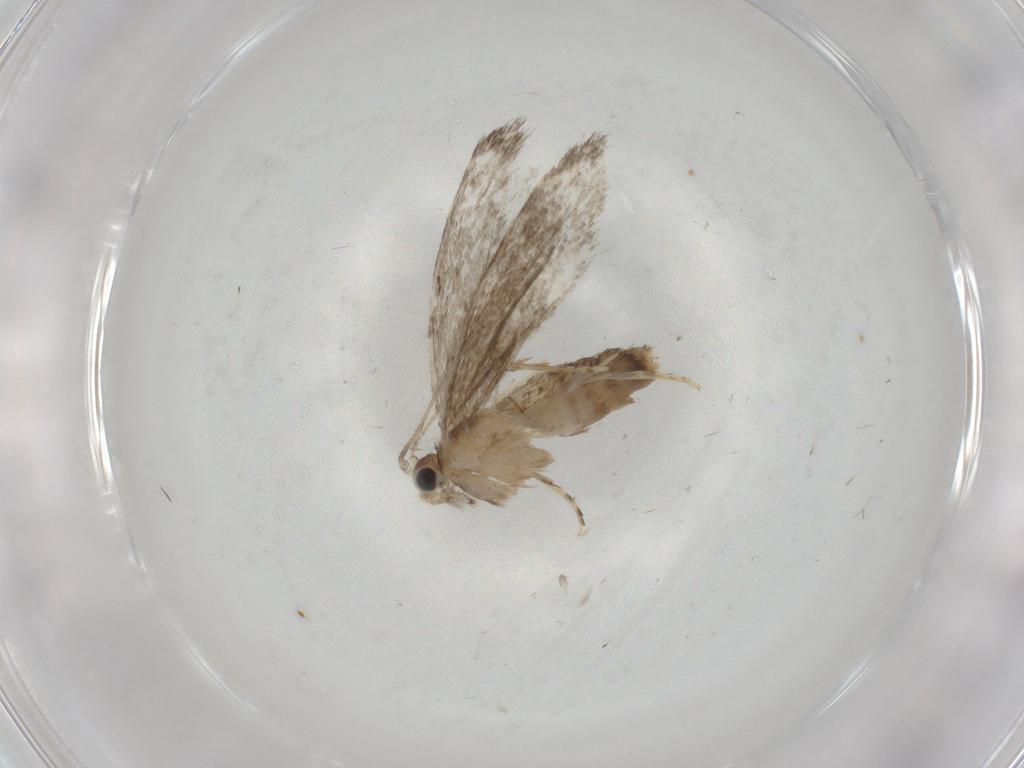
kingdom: Animalia
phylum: Arthropoda
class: Insecta
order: Lepidoptera
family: Tineidae
